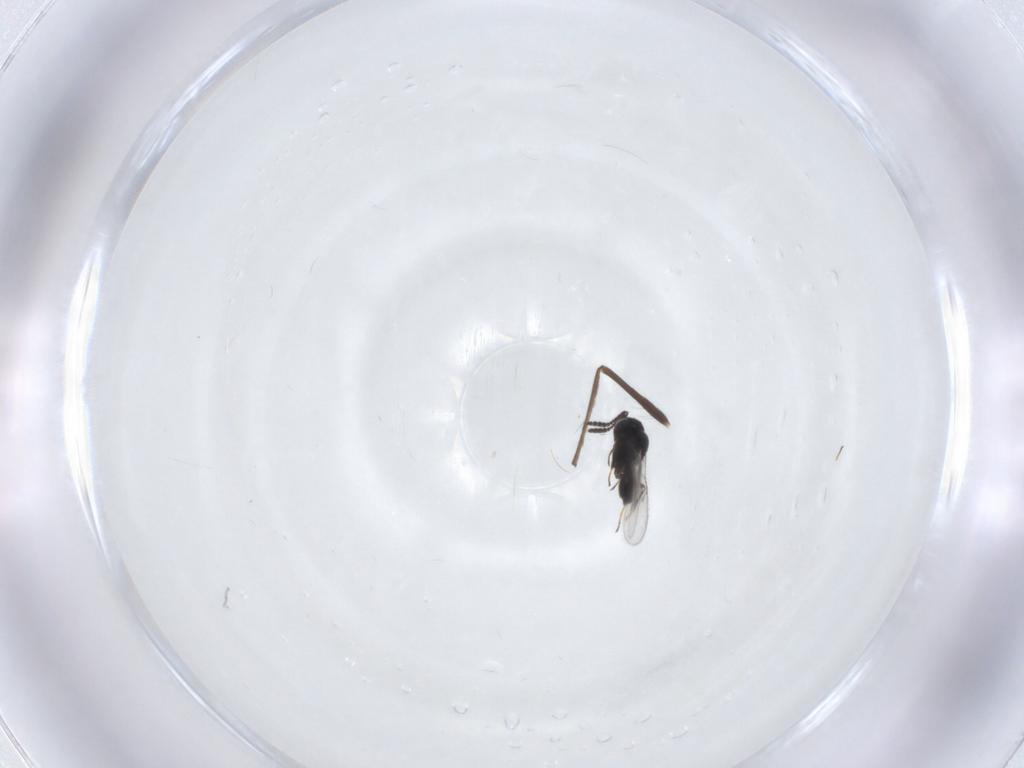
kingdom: Animalia
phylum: Arthropoda
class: Insecta
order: Hymenoptera
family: Scelionidae
